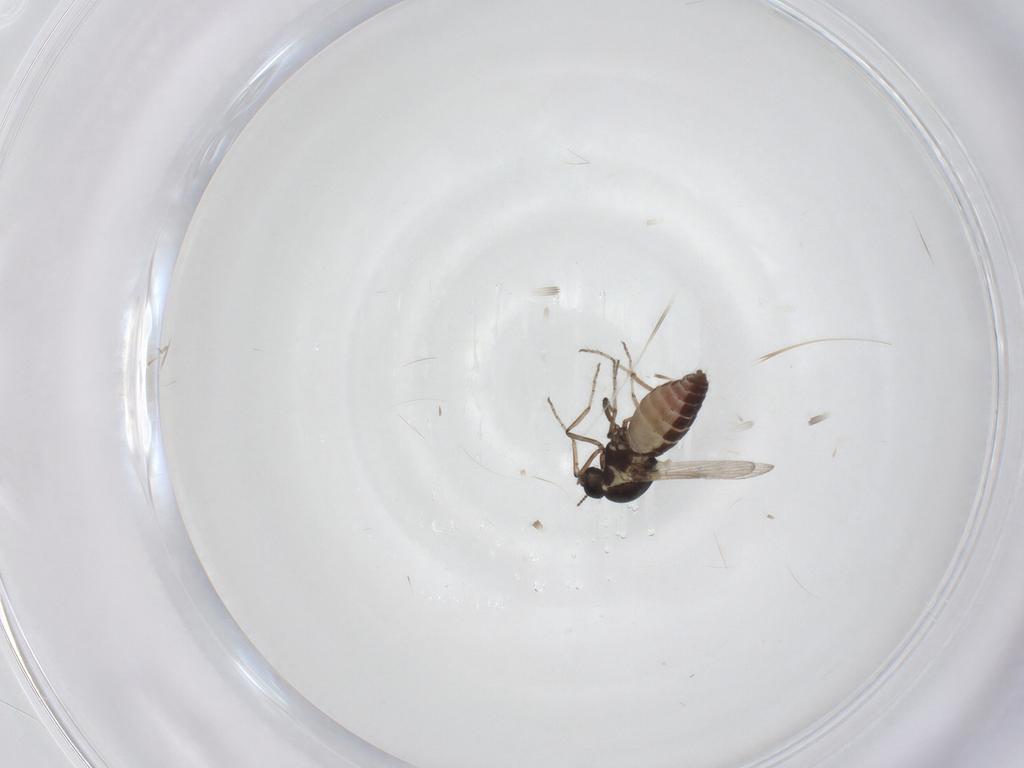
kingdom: Animalia
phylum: Arthropoda
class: Insecta
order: Diptera
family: Ceratopogonidae
